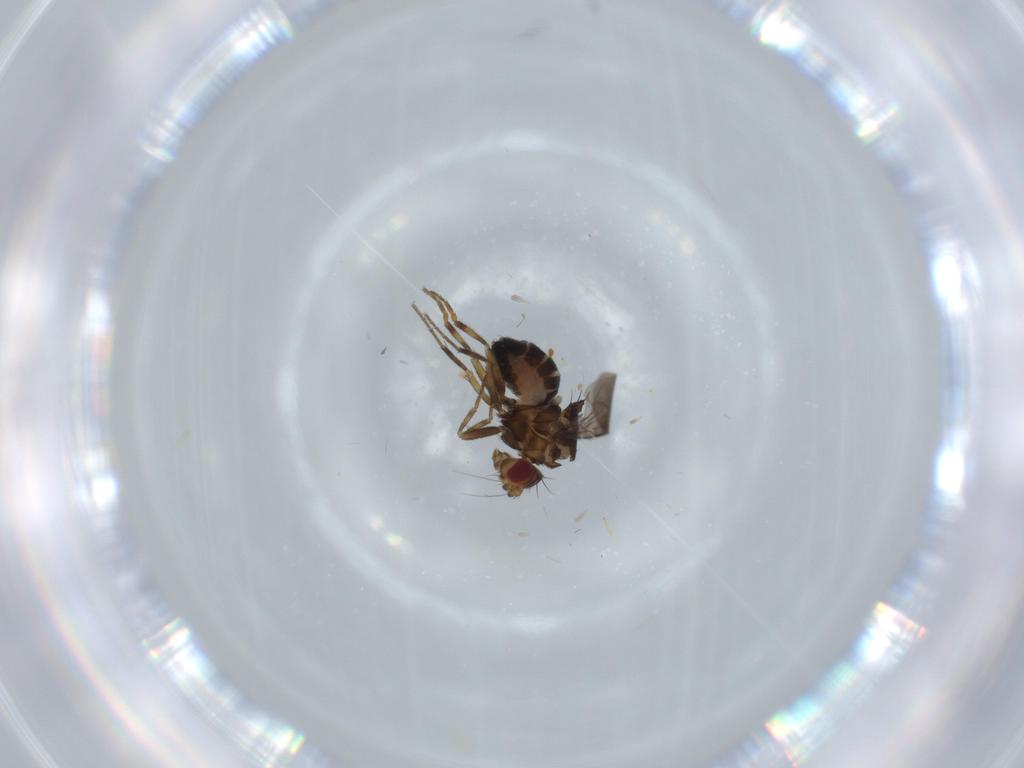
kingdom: Animalia
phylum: Arthropoda
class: Insecta
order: Diptera
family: Sphaeroceridae
